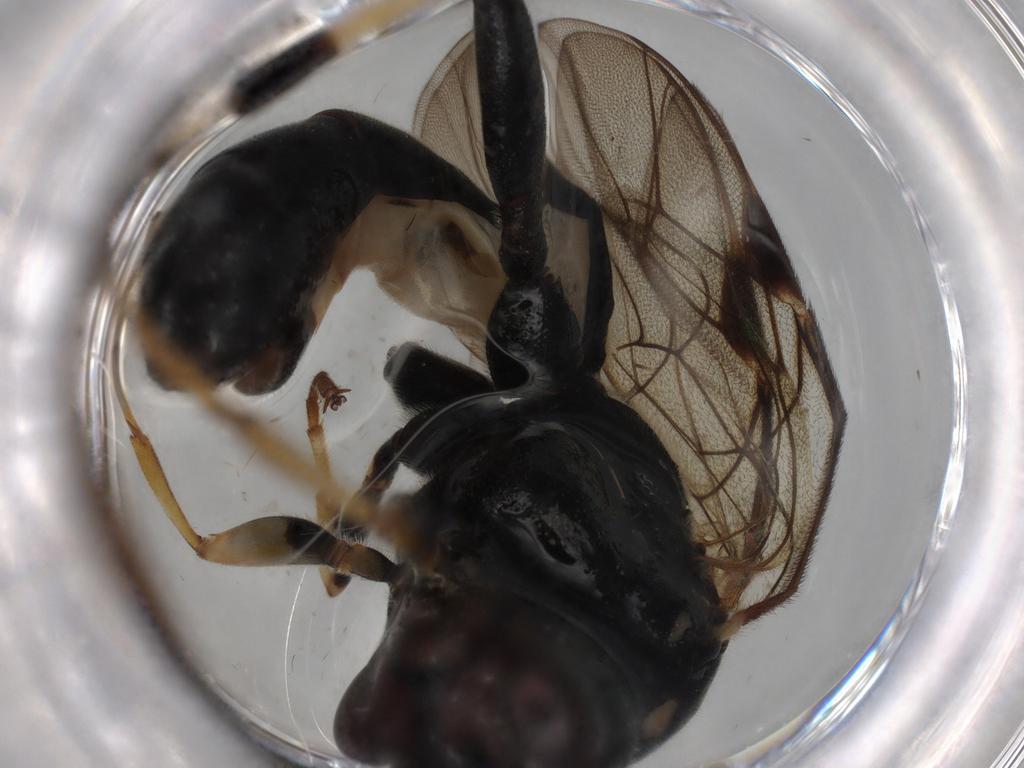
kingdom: Animalia
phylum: Arthropoda
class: Insecta
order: Hymenoptera
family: Ichneumonidae
